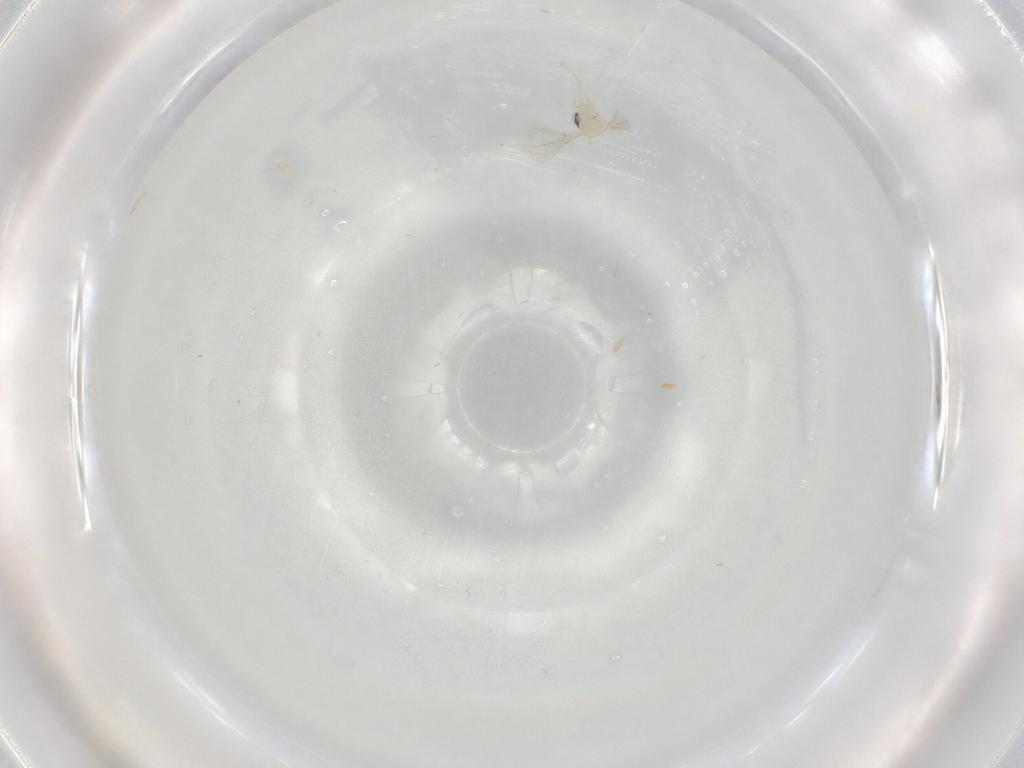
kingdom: Animalia
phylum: Arthropoda
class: Insecta
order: Diptera
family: Cecidomyiidae
